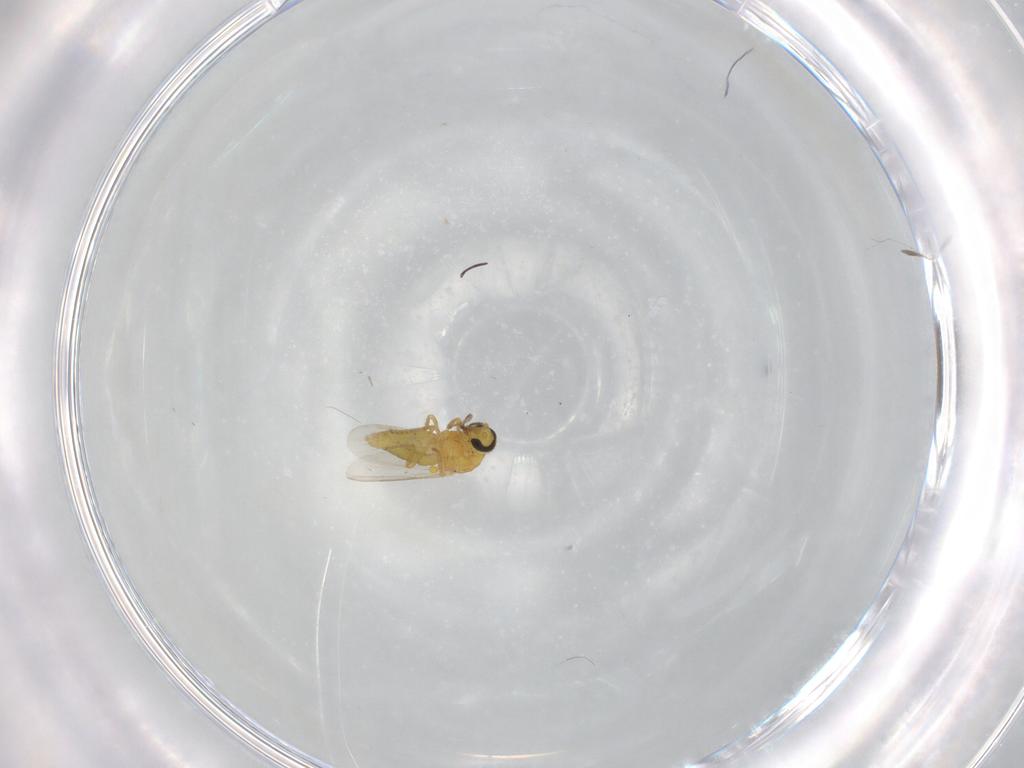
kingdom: Animalia
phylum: Arthropoda
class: Insecta
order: Diptera
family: Ceratopogonidae
